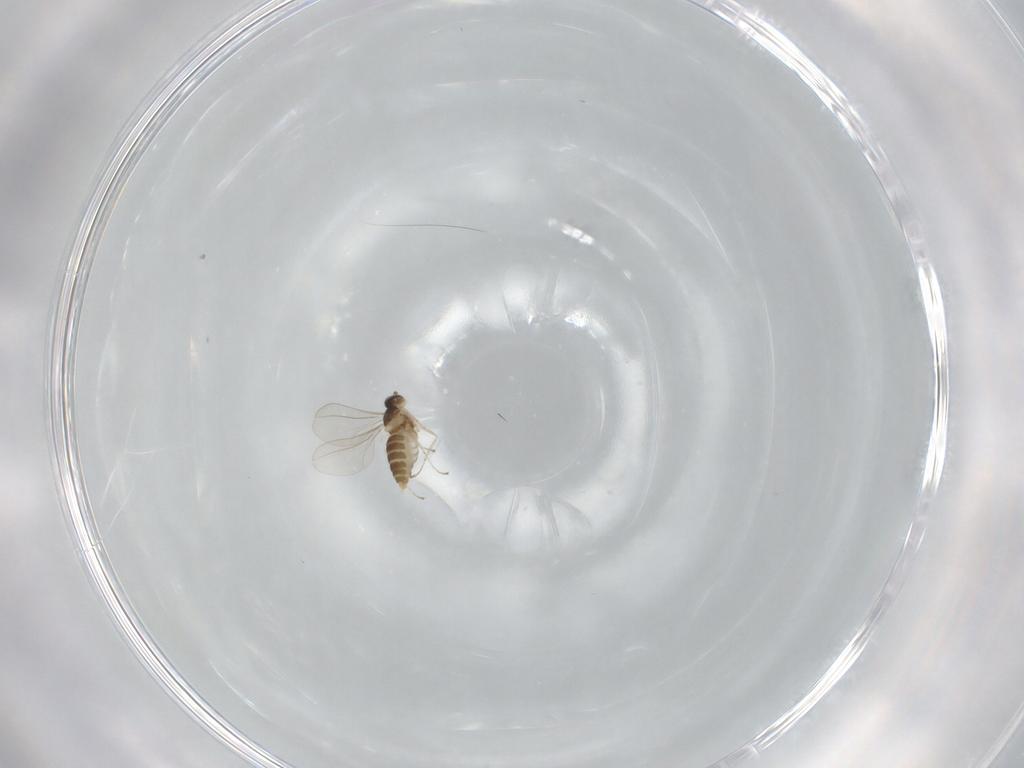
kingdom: Animalia
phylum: Arthropoda
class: Insecta
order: Diptera
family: Cecidomyiidae
